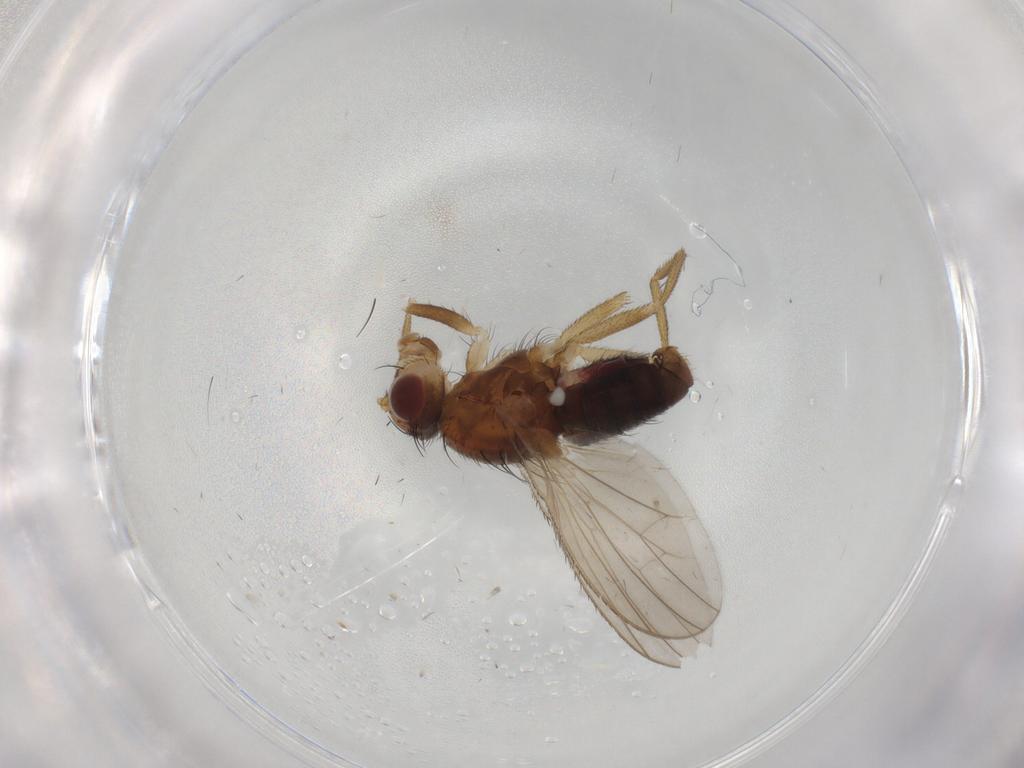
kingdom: Animalia
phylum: Arthropoda
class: Insecta
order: Diptera
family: Heleomyzidae
